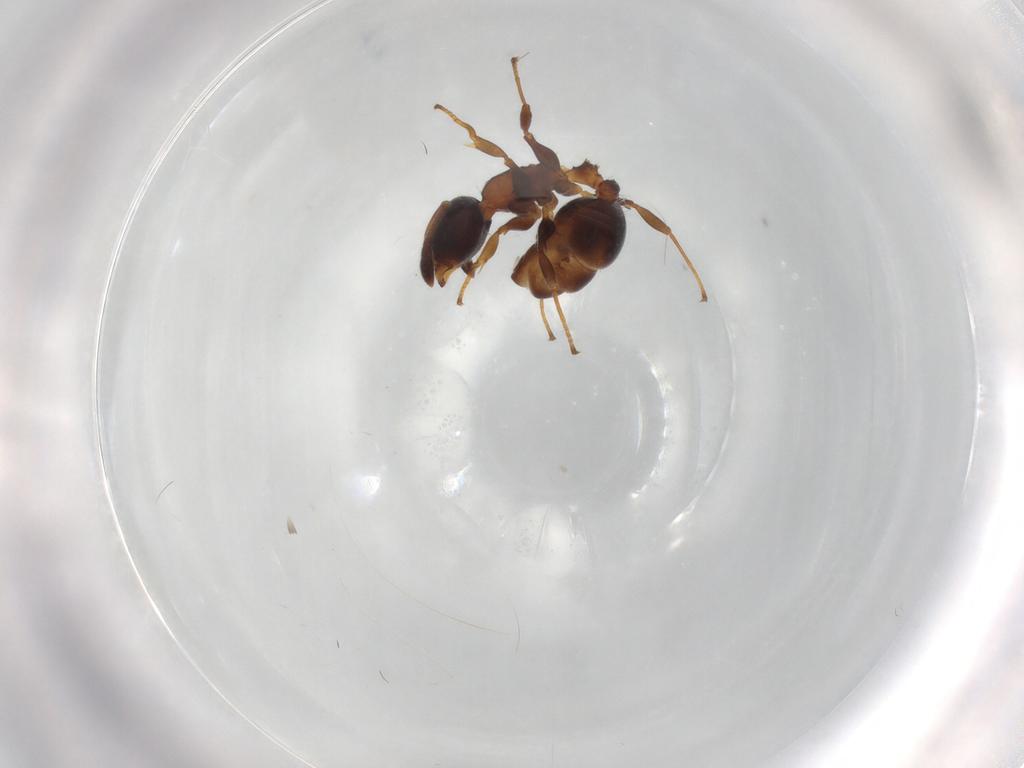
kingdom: Animalia
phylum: Arthropoda
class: Insecta
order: Hymenoptera
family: Formicidae
